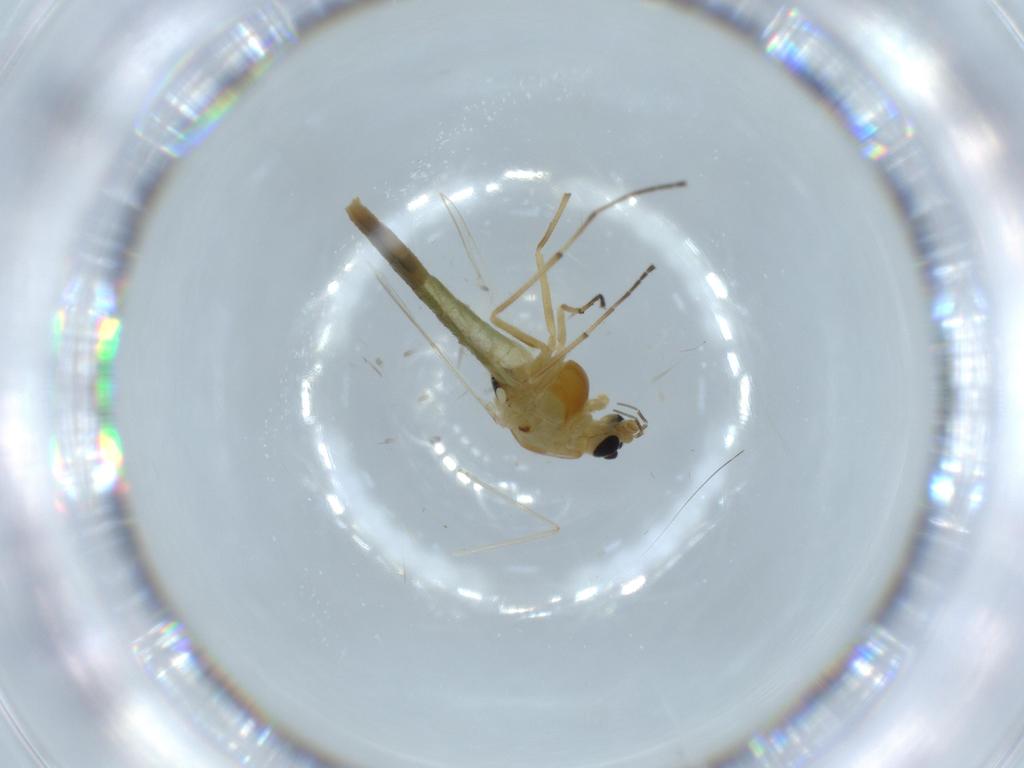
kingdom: Animalia
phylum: Arthropoda
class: Insecta
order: Diptera
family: Chironomidae
